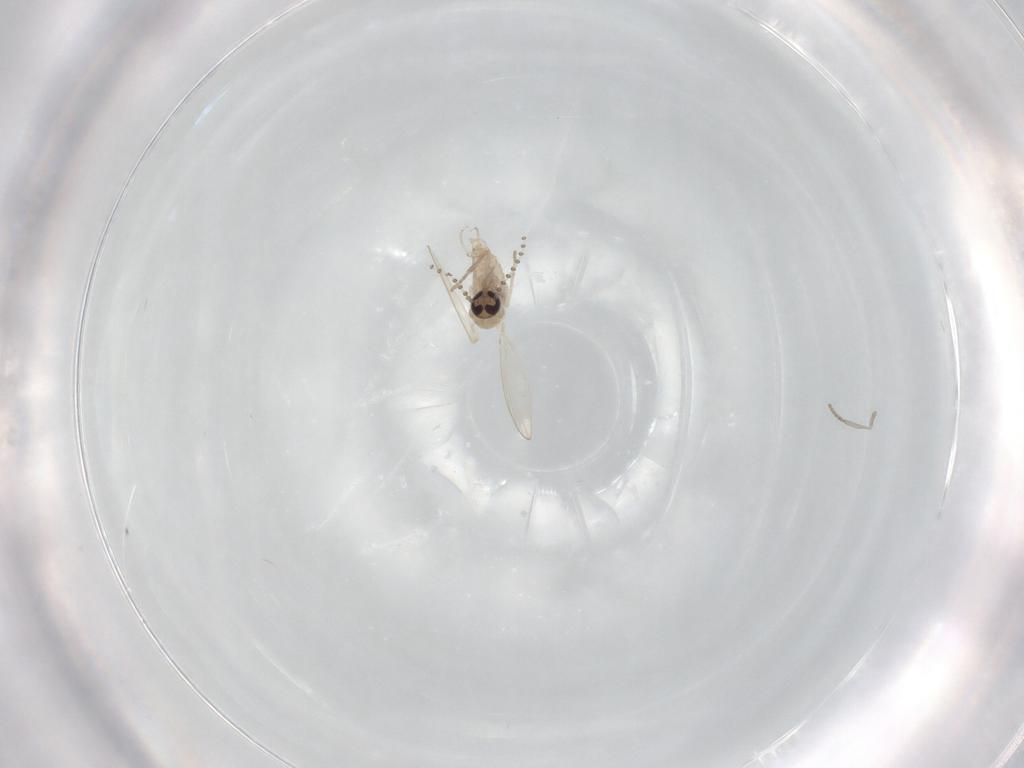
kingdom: Animalia
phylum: Arthropoda
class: Insecta
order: Diptera
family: Psychodidae
